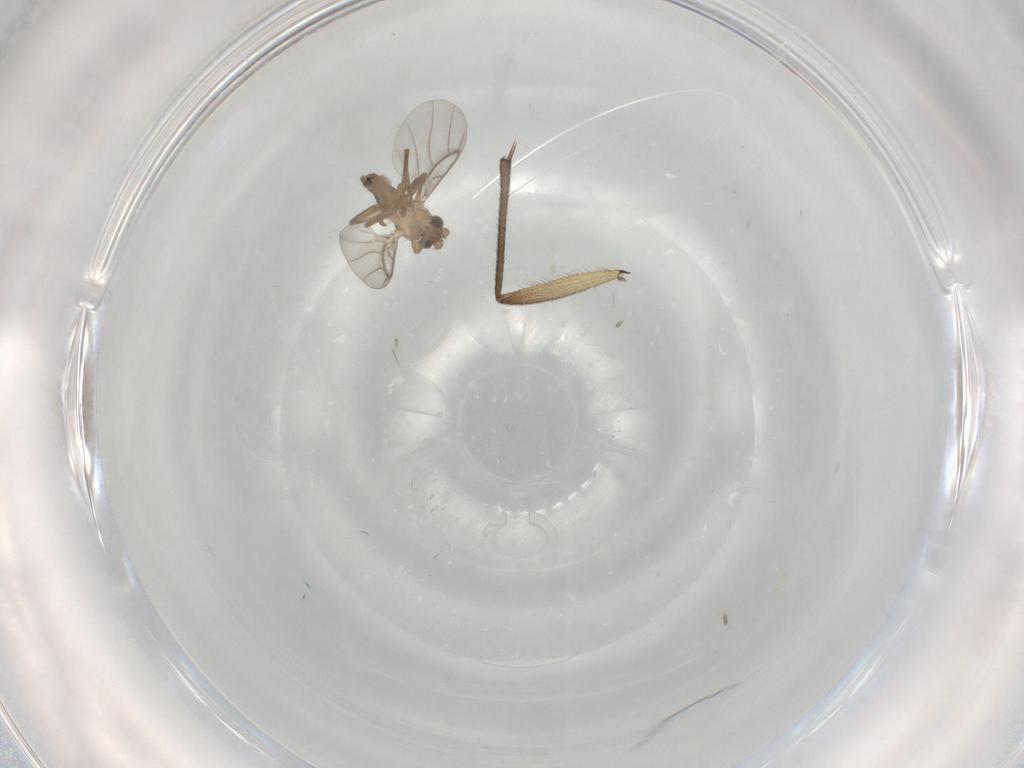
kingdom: Animalia
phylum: Arthropoda
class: Insecta
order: Diptera
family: Sciaridae
